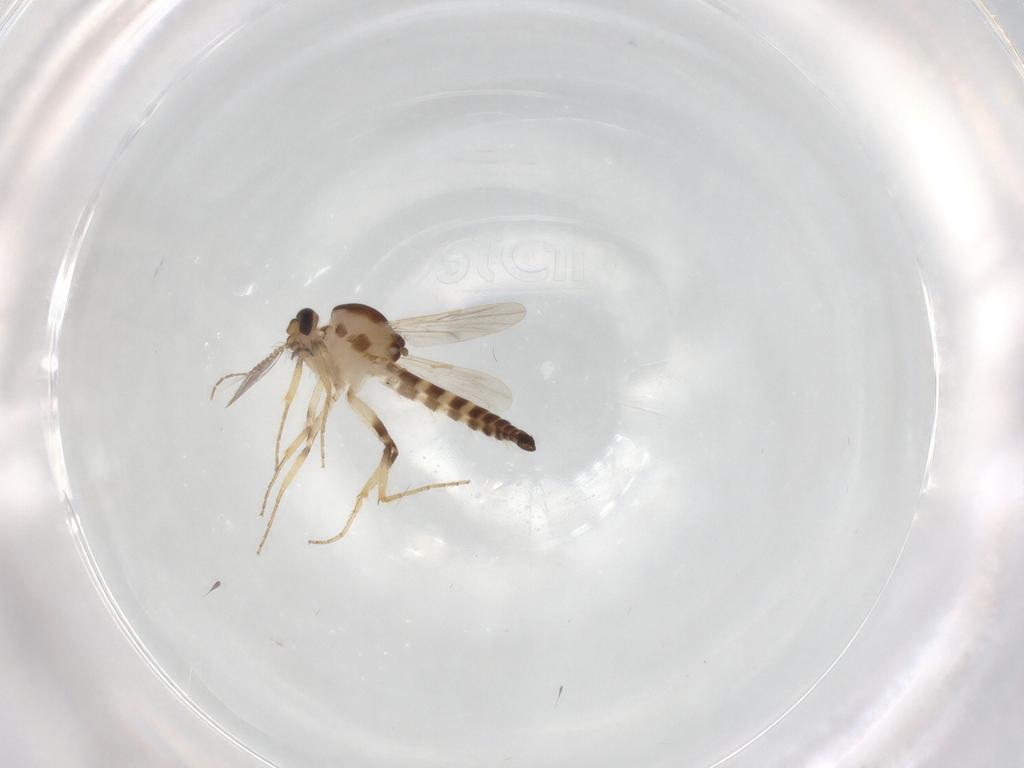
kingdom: Animalia
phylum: Arthropoda
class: Insecta
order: Diptera
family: Ceratopogonidae
